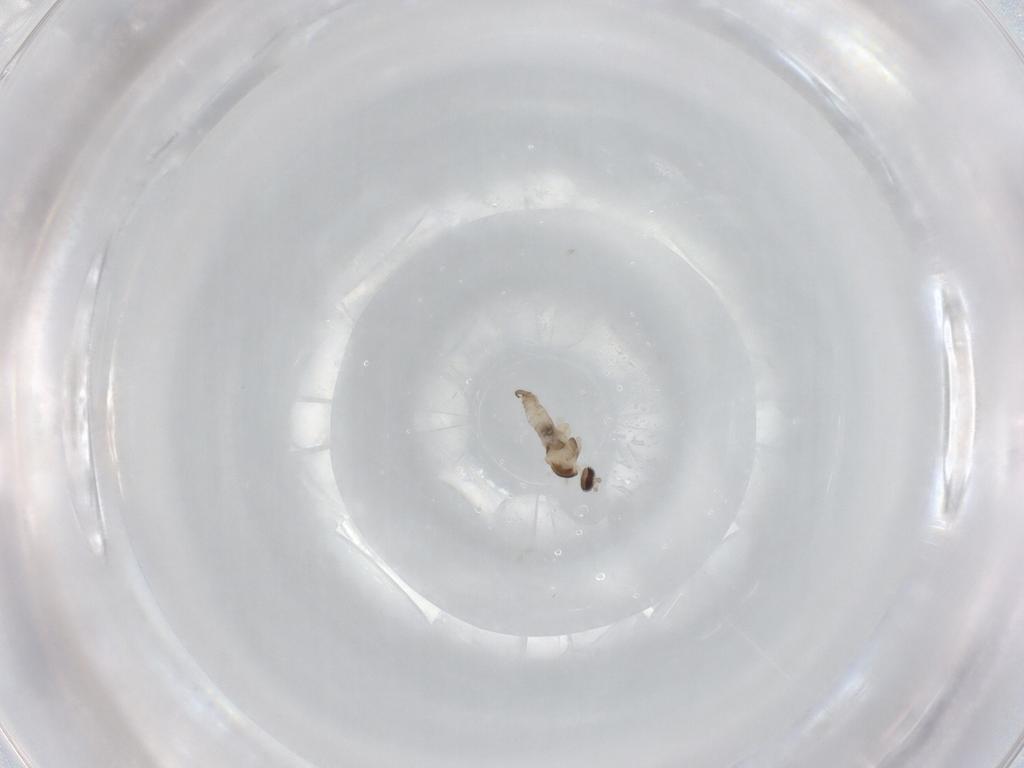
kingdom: Animalia
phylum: Arthropoda
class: Insecta
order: Diptera
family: Cecidomyiidae
